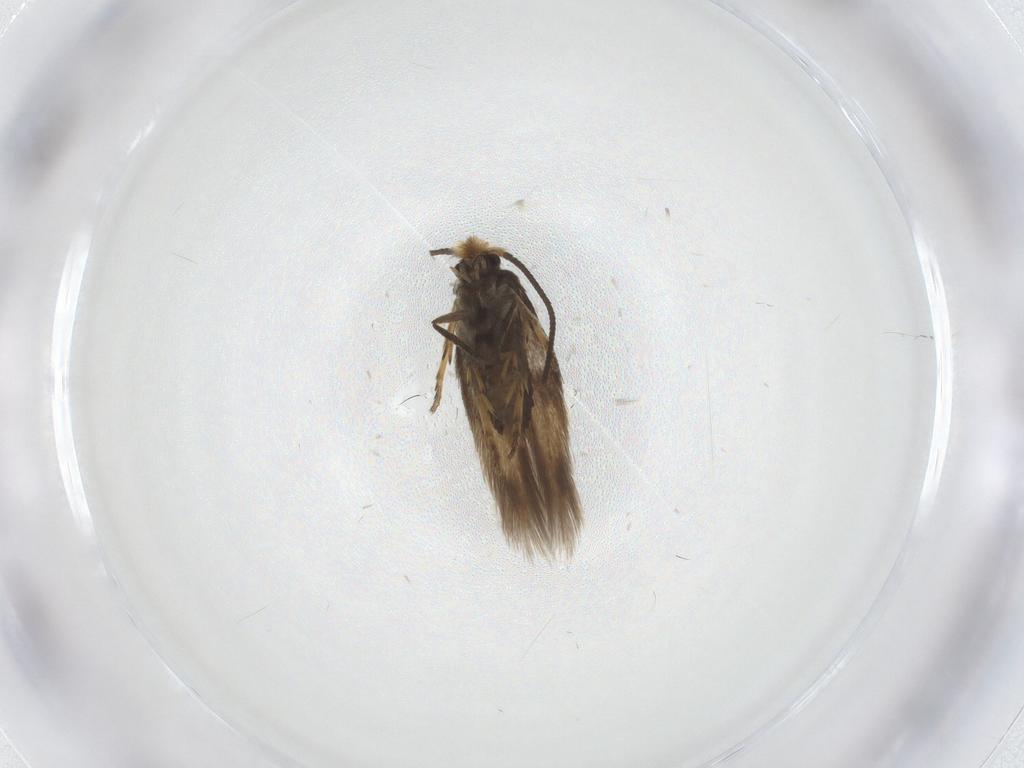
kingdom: Animalia
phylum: Arthropoda
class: Insecta
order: Lepidoptera
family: Nepticulidae
